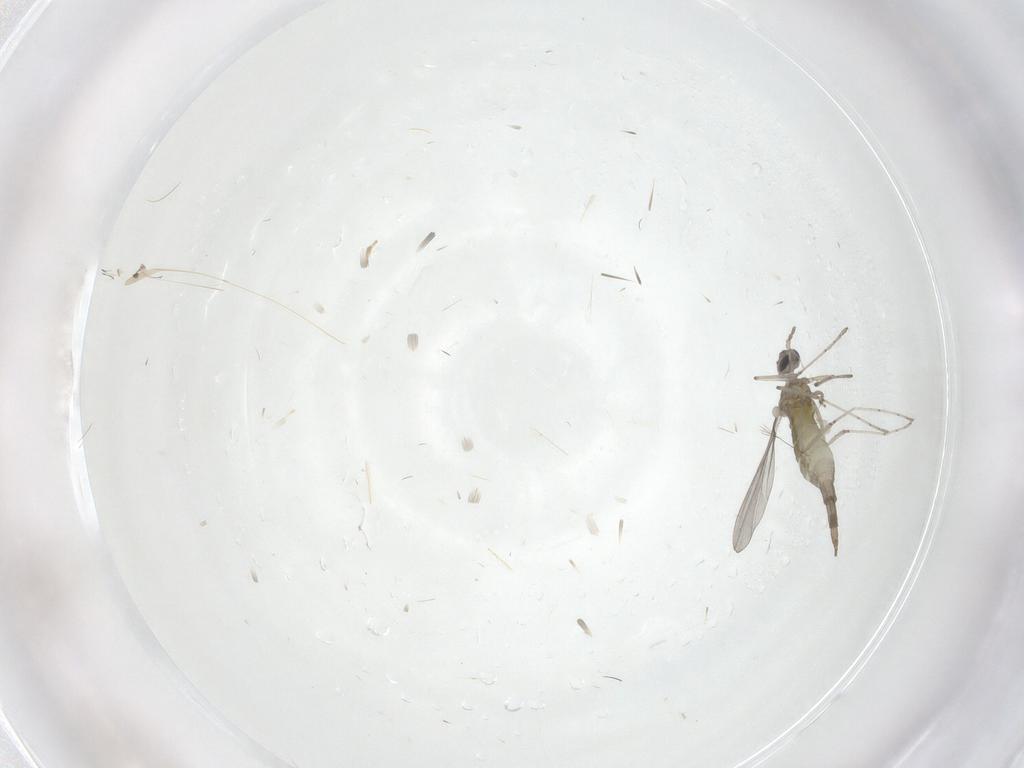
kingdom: Animalia
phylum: Arthropoda
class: Insecta
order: Diptera
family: Cecidomyiidae
